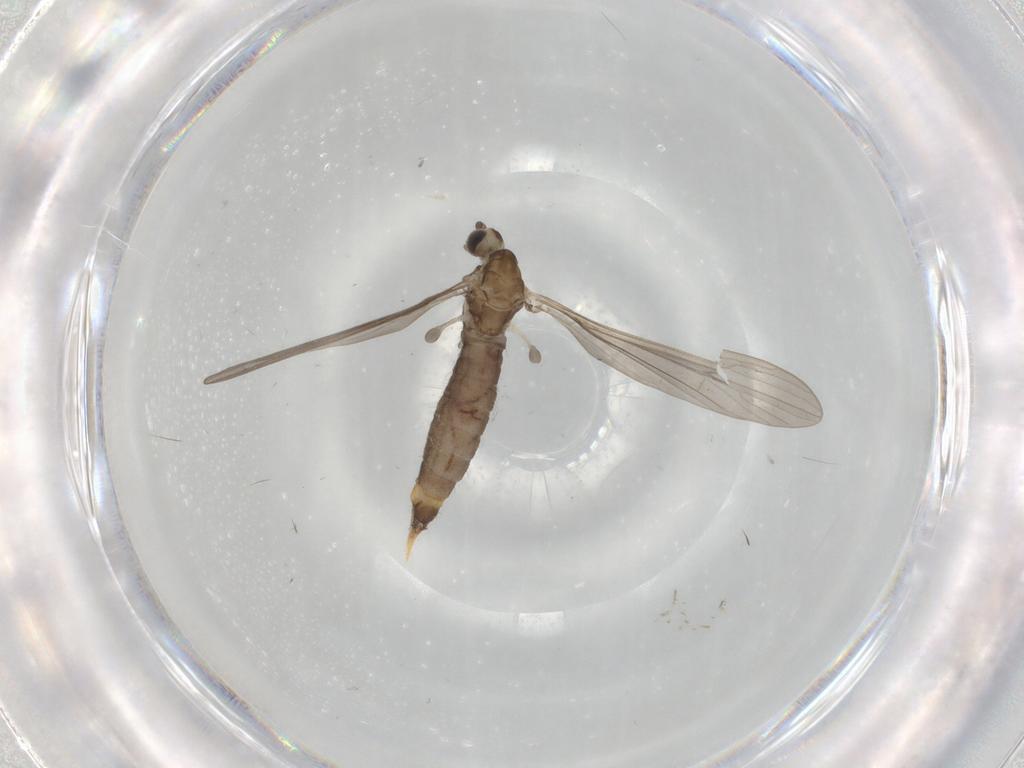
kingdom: Animalia
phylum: Arthropoda
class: Insecta
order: Diptera
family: Limoniidae
